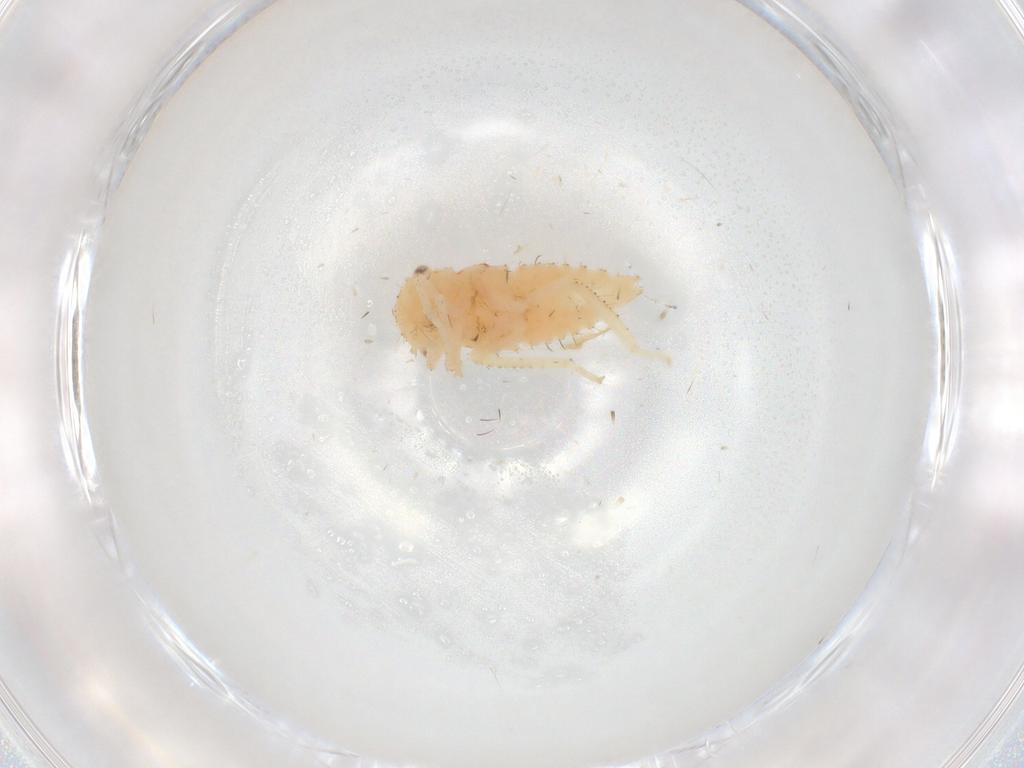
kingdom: Animalia
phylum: Arthropoda
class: Insecta
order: Hemiptera
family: Cicadellidae
